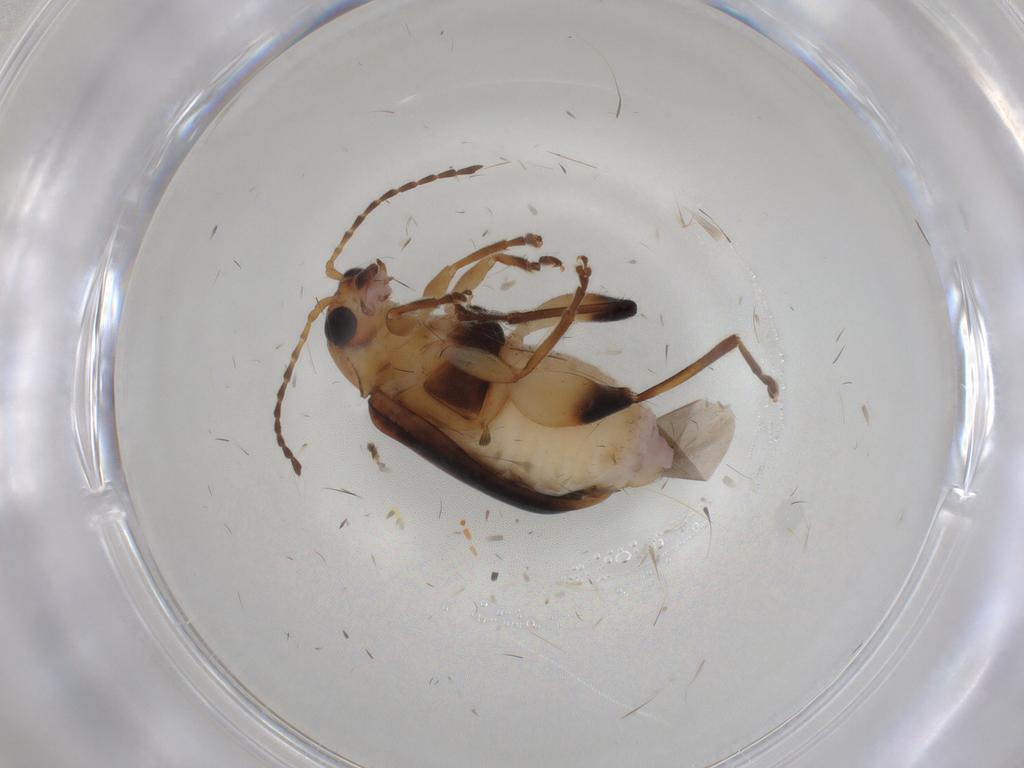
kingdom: Animalia
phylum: Arthropoda
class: Insecta
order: Coleoptera
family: Chrysomelidae
